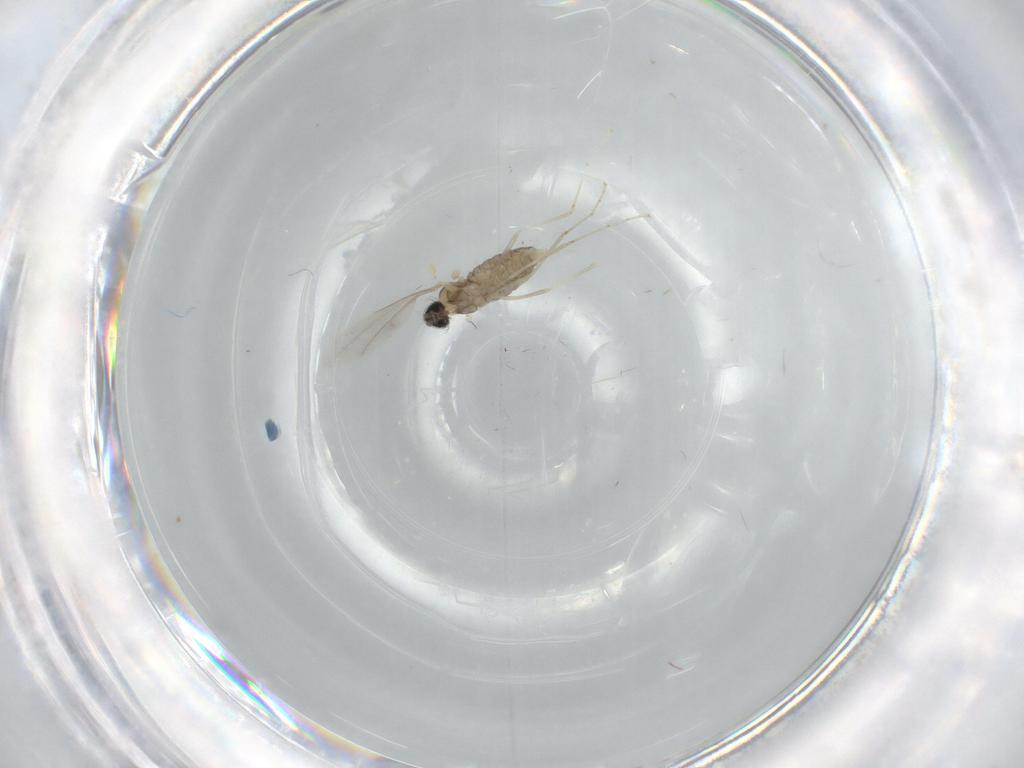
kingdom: Animalia
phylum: Arthropoda
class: Insecta
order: Diptera
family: Cecidomyiidae
